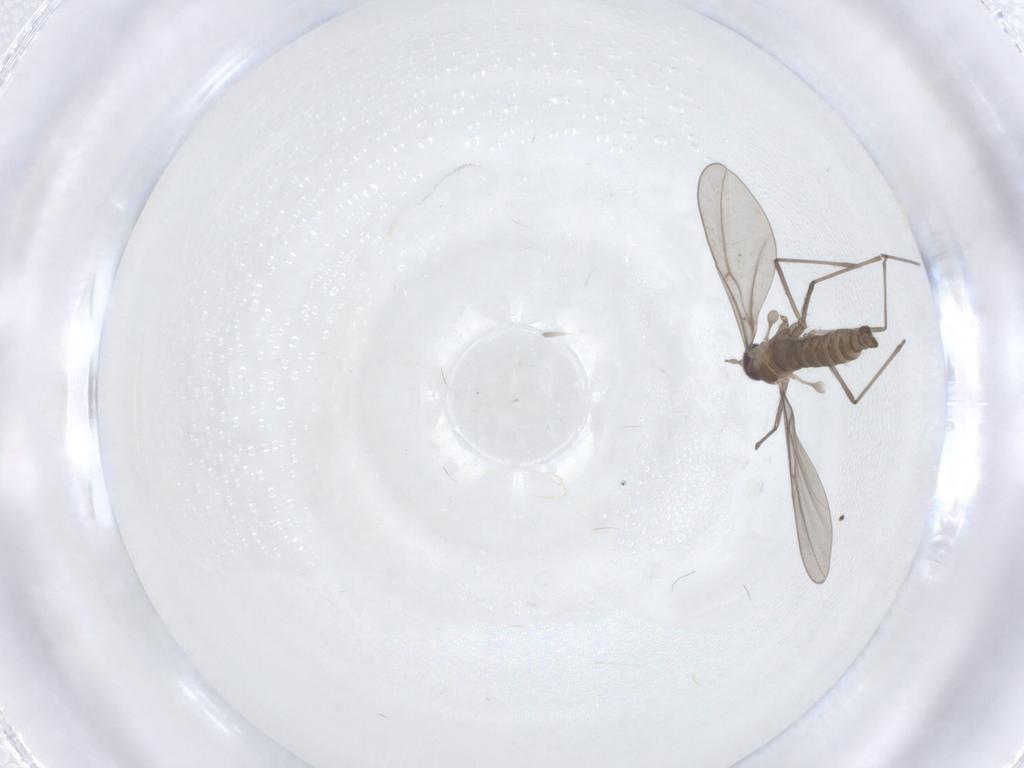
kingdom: Animalia
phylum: Arthropoda
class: Insecta
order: Diptera
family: Cecidomyiidae
